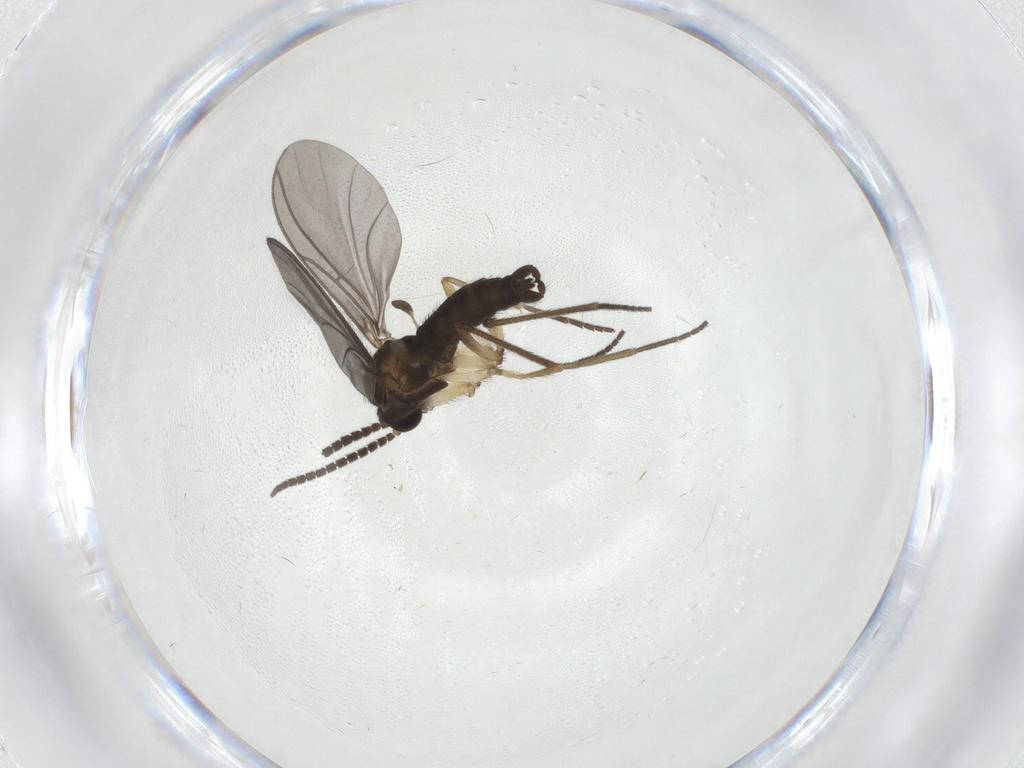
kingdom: Animalia
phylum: Arthropoda
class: Insecta
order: Diptera
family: Sciaridae
